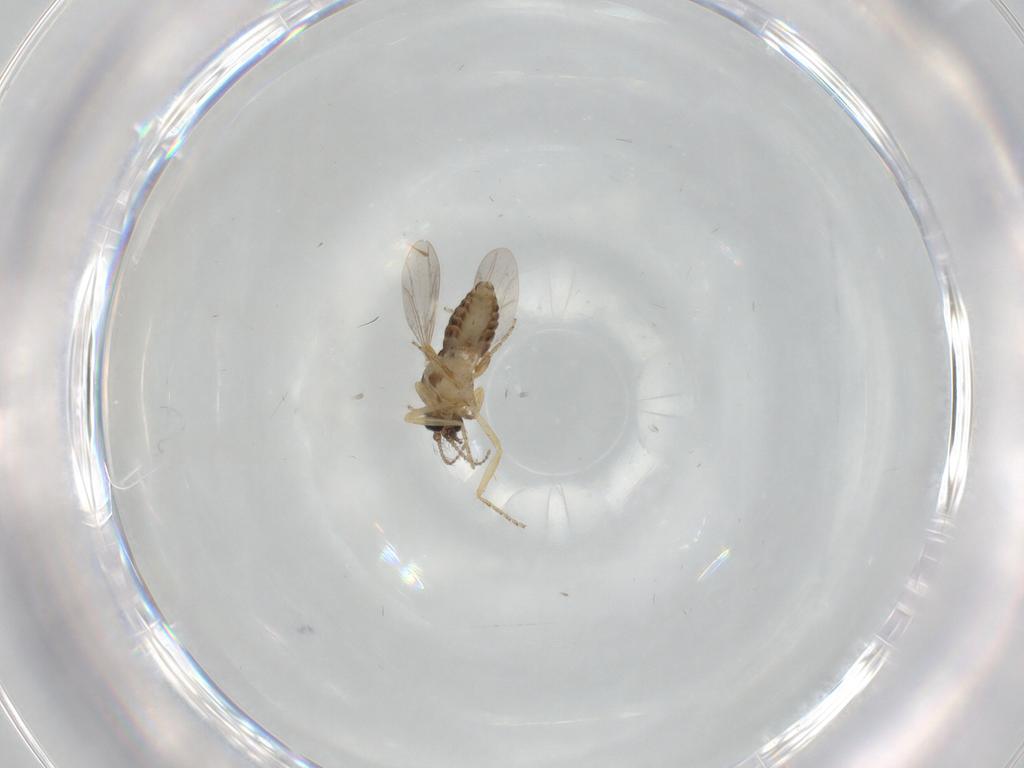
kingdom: Animalia
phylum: Arthropoda
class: Insecta
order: Diptera
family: Ceratopogonidae
